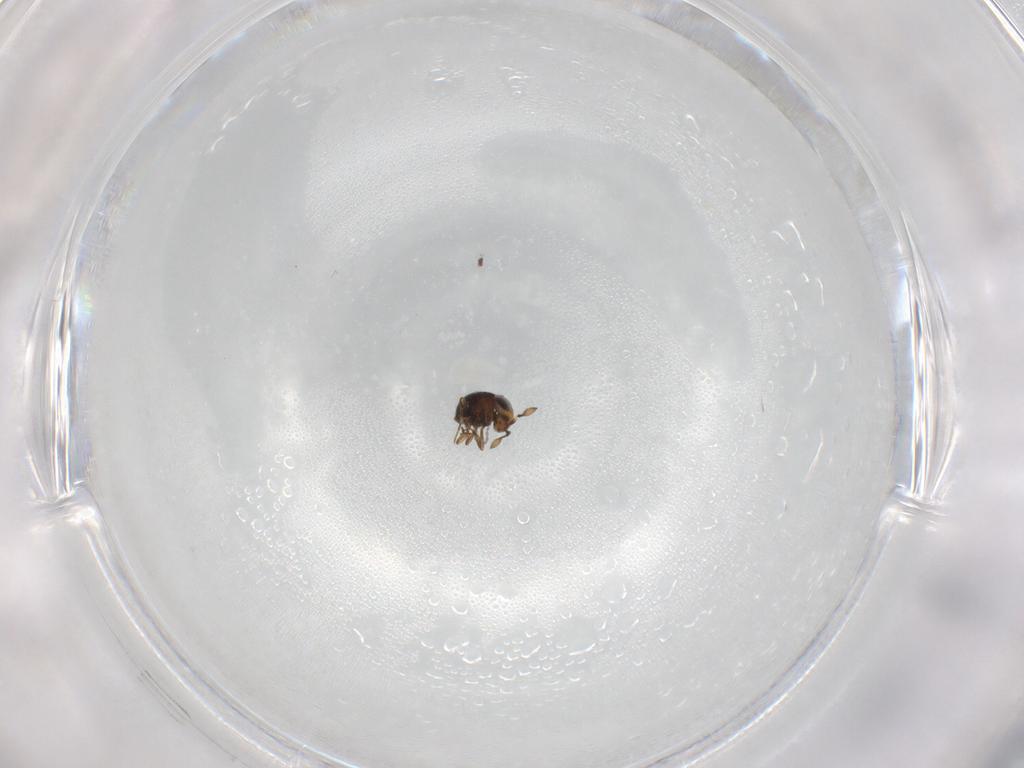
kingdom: Animalia
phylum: Arthropoda
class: Insecta
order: Hymenoptera
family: Scelionidae
